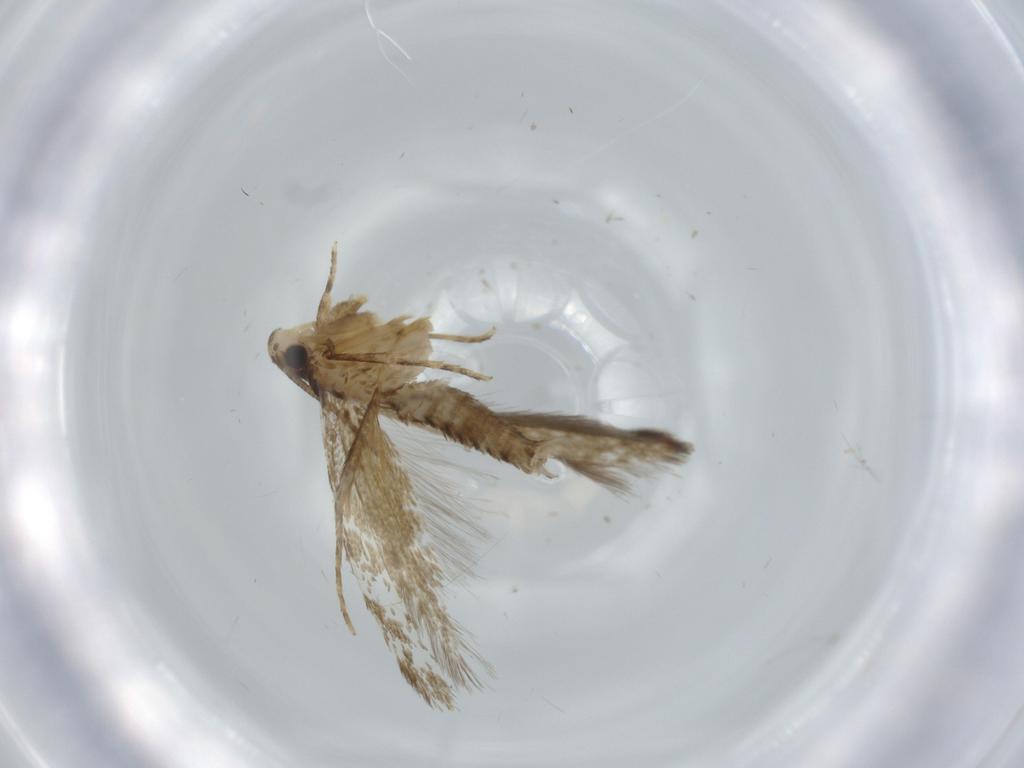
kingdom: Animalia
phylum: Arthropoda
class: Insecta
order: Lepidoptera
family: Tineidae
